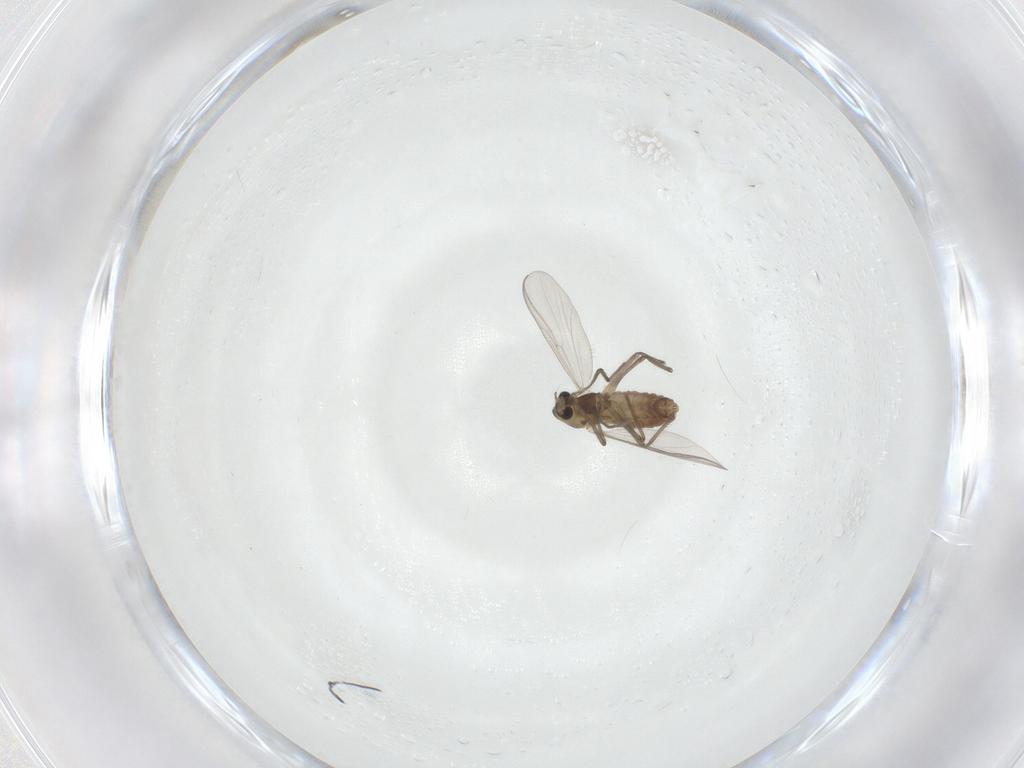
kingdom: Animalia
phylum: Arthropoda
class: Insecta
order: Diptera
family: Chironomidae
